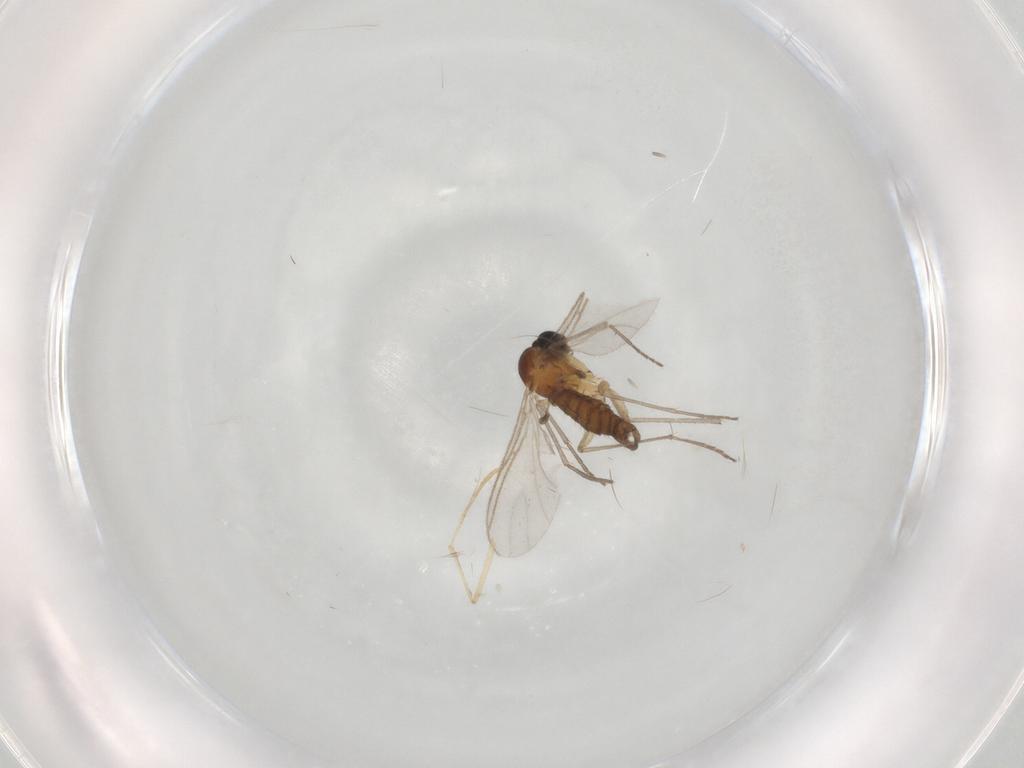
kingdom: Animalia
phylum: Arthropoda
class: Insecta
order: Diptera
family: Sciaridae
